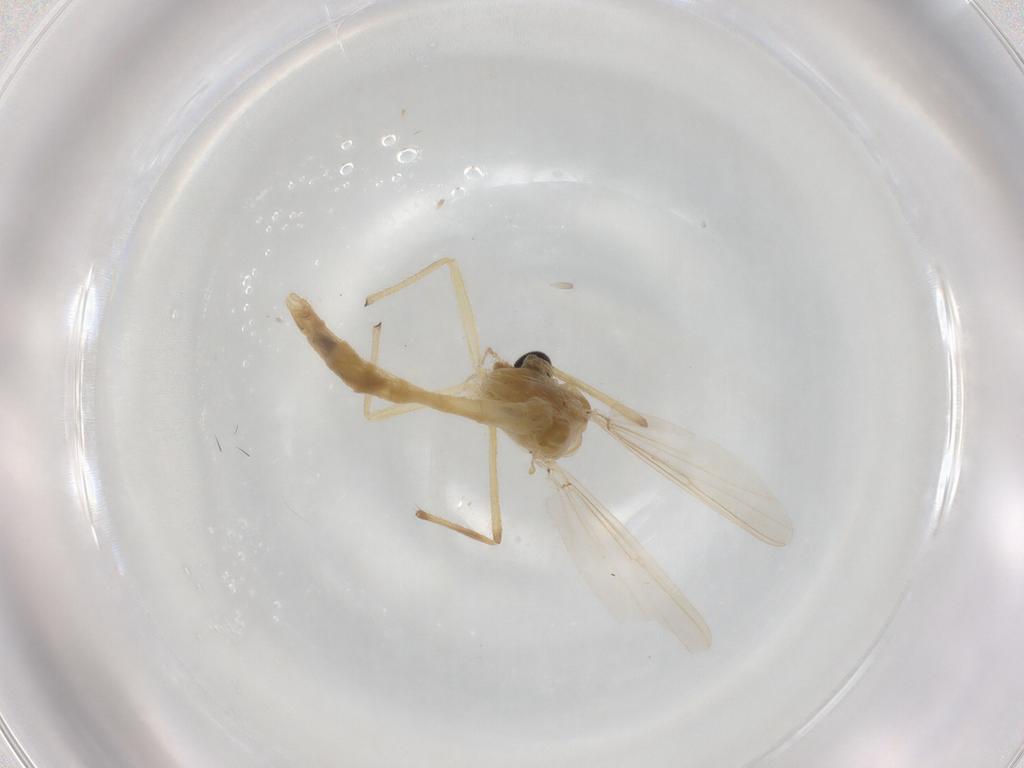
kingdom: Animalia
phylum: Arthropoda
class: Insecta
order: Diptera
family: Chironomidae
